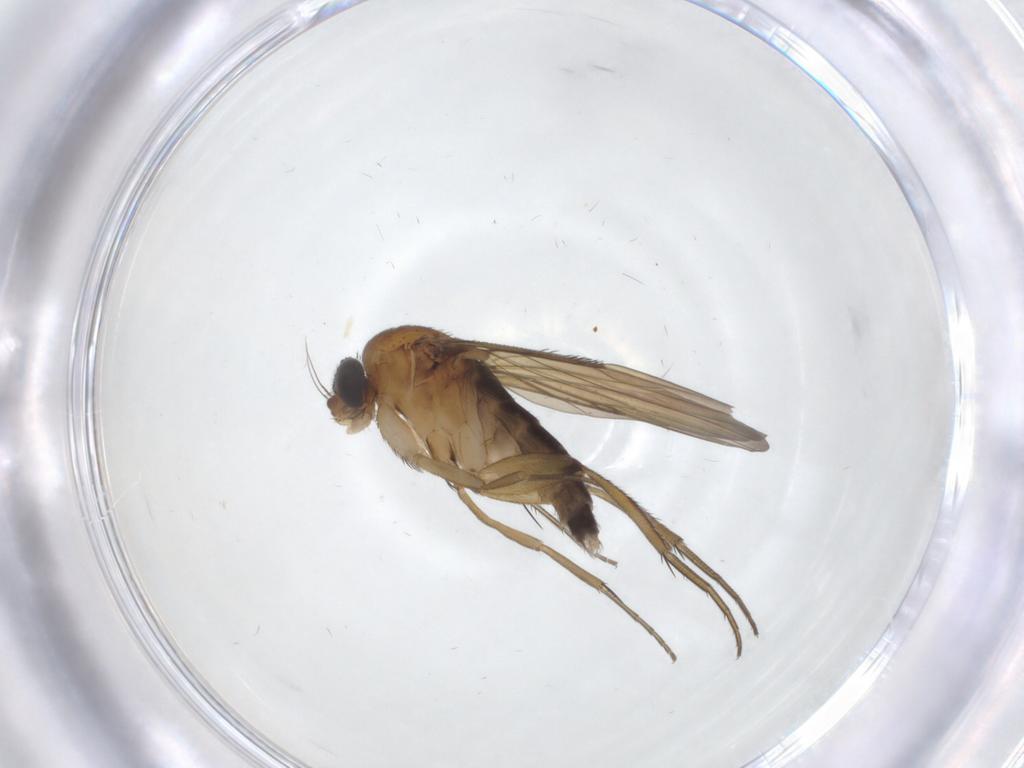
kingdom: Animalia
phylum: Arthropoda
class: Insecta
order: Diptera
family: Phoridae
